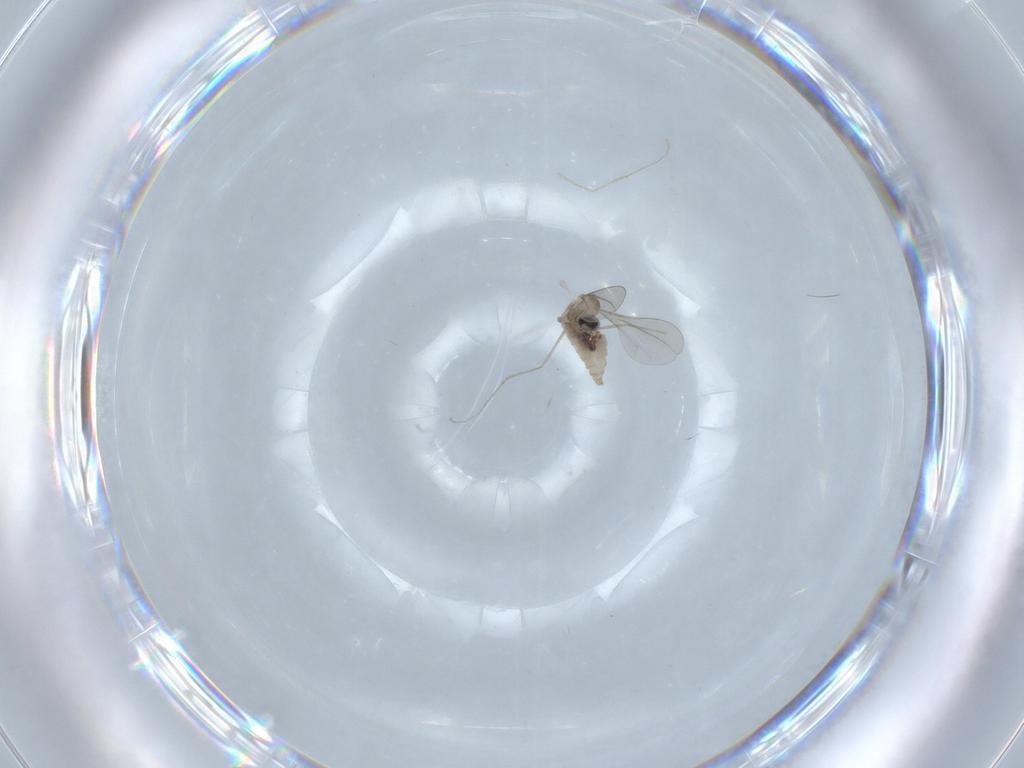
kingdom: Animalia
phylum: Arthropoda
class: Insecta
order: Diptera
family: Cecidomyiidae
